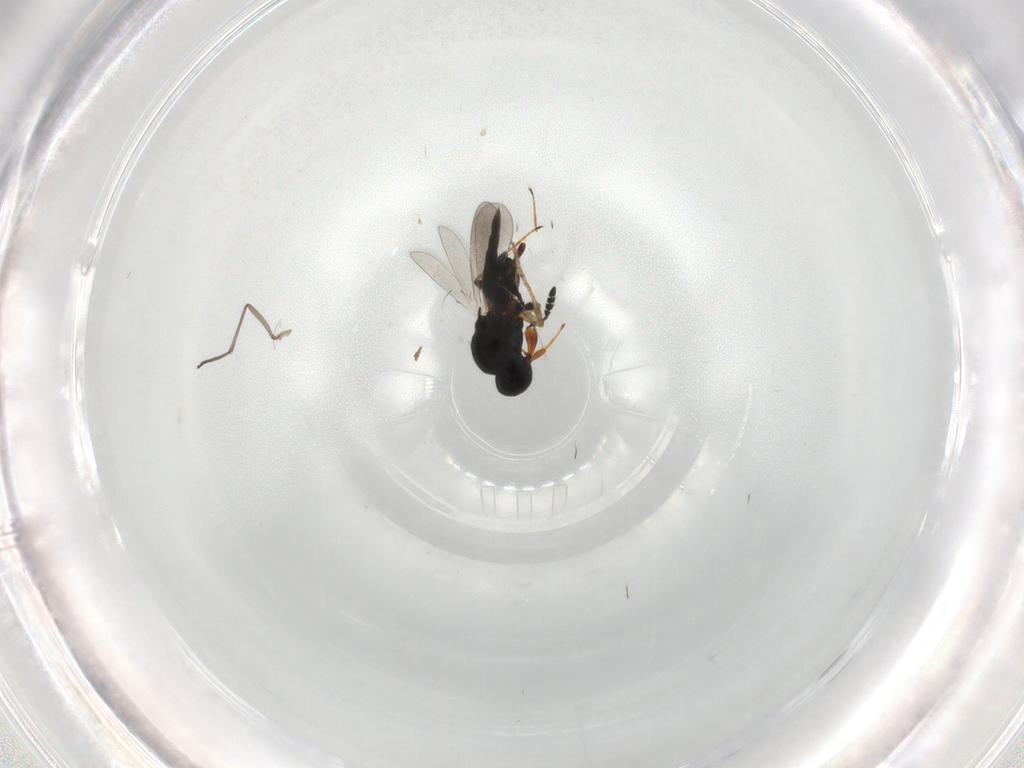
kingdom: Animalia
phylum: Arthropoda
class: Insecta
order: Hymenoptera
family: Dryinidae
